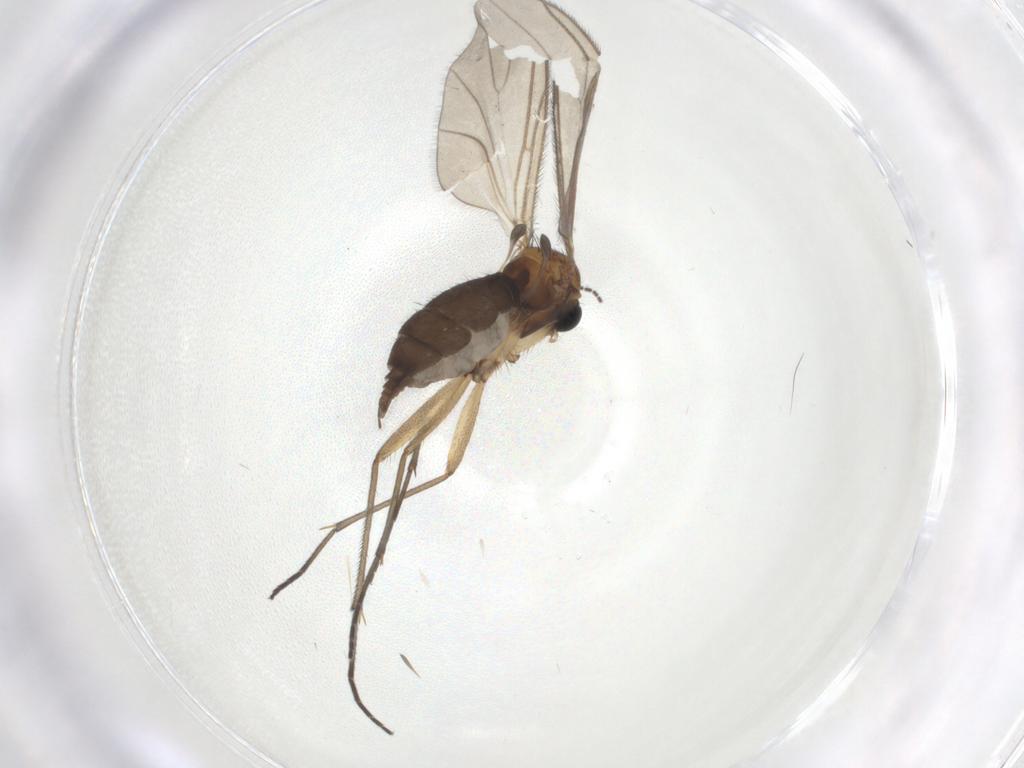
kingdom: Animalia
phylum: Arthropoda
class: Insecta
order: Diptera
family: Sciaridae
